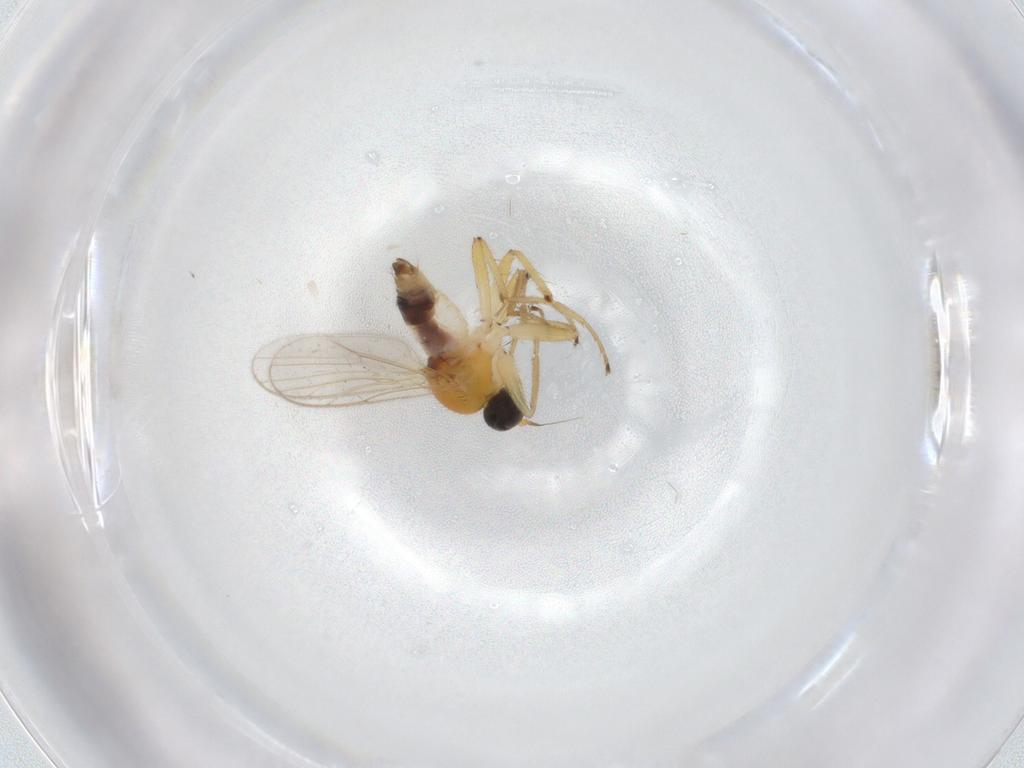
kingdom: Animalia
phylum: Arthropoda
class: Insecta
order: Diptera
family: Hybotidae
